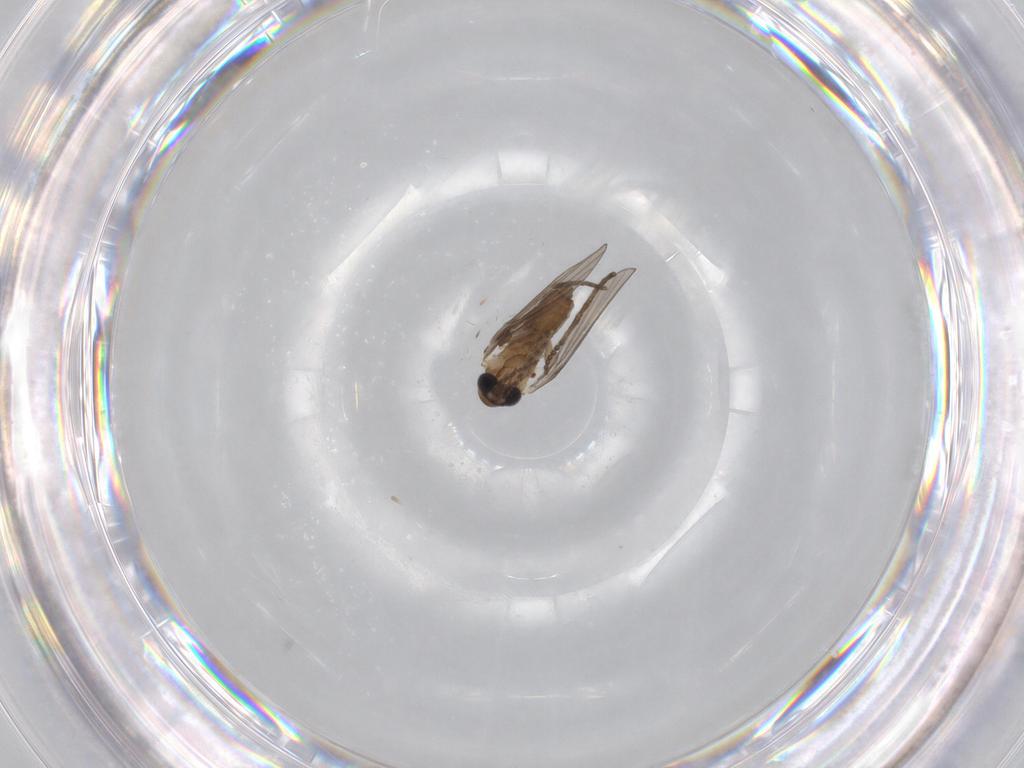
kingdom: Animalia
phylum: Arthropoda
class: Insecta
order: Diptera
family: Cecidomyiidae
